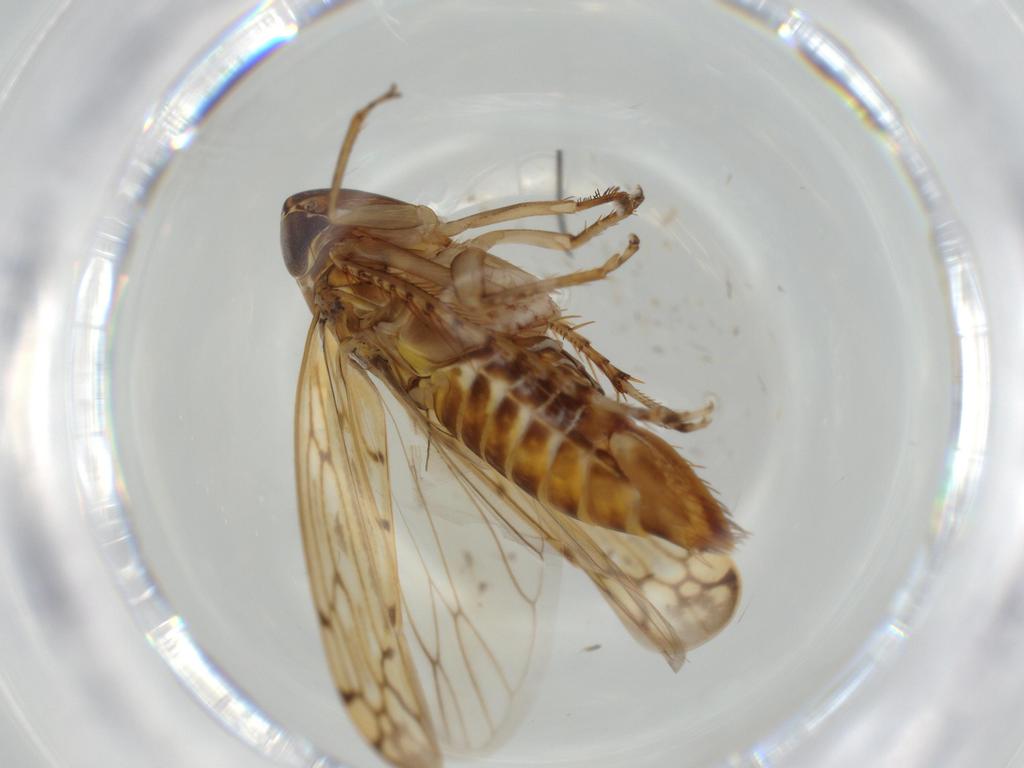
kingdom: Animalia
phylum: Arthropoda
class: Insecta
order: Hemiptera
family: Cicadellidae
